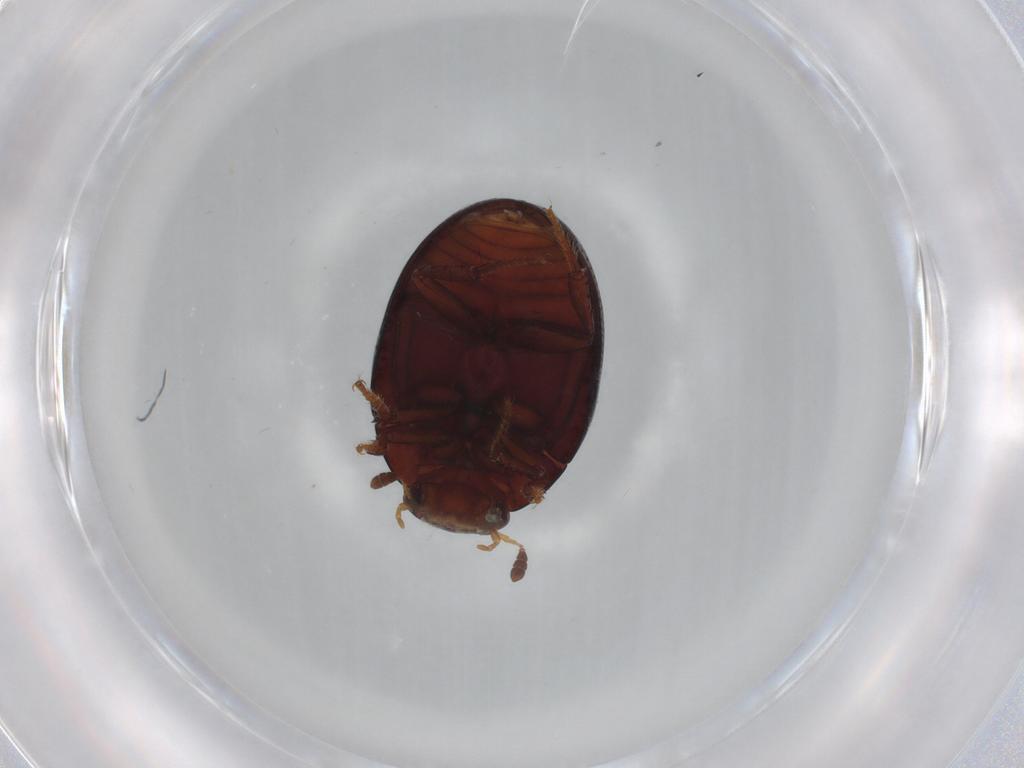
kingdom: Animalia
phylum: Arthropoda
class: Insecta
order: Coleoptera
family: Hydrophilidae
